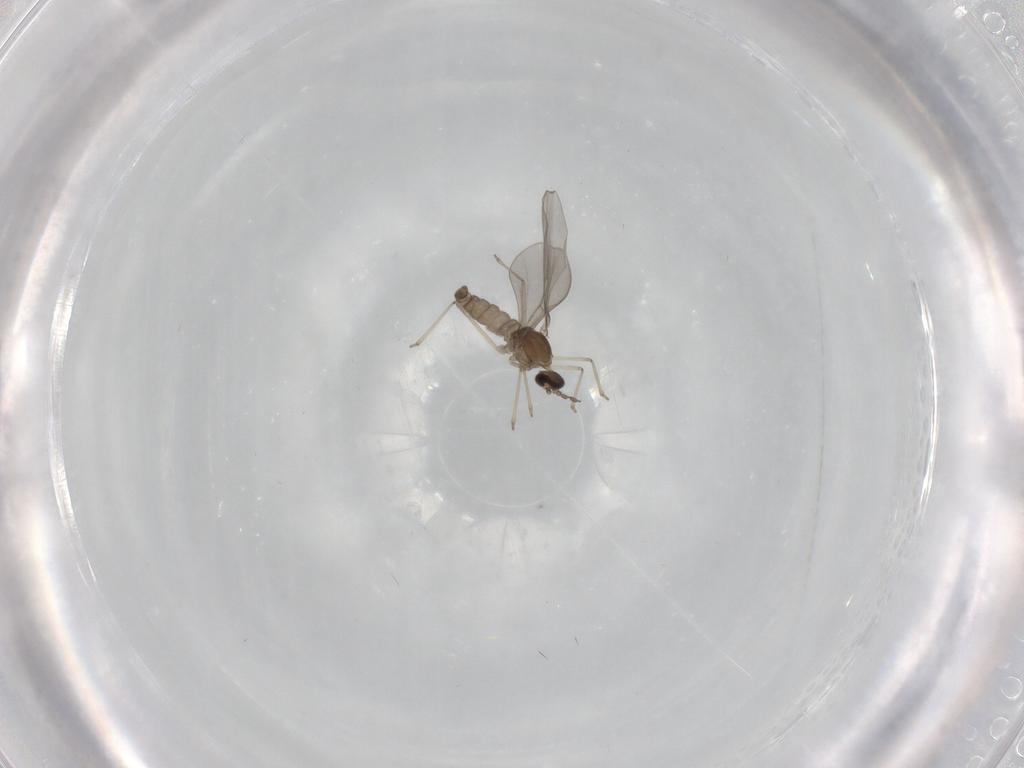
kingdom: Animalia
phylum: Arthropoda
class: Insecta
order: Diptera
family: Cecidomyiidae
